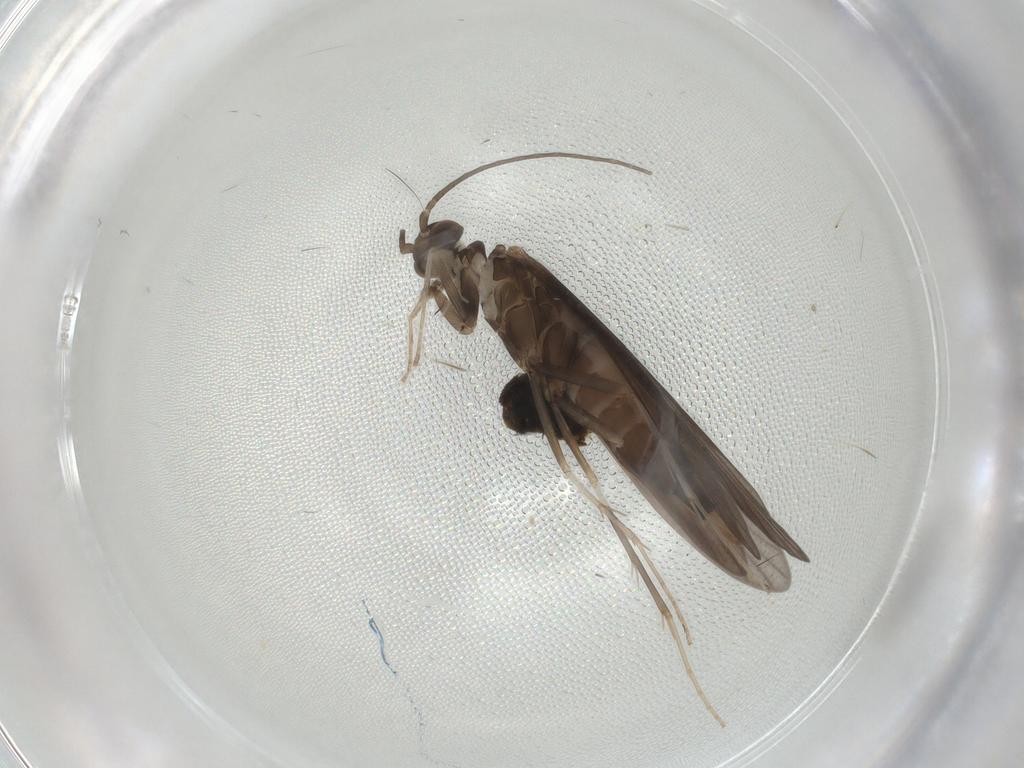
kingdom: Animalia
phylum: Arthropoda
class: Insecta
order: Trichoptera
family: Xiphocentronidae
